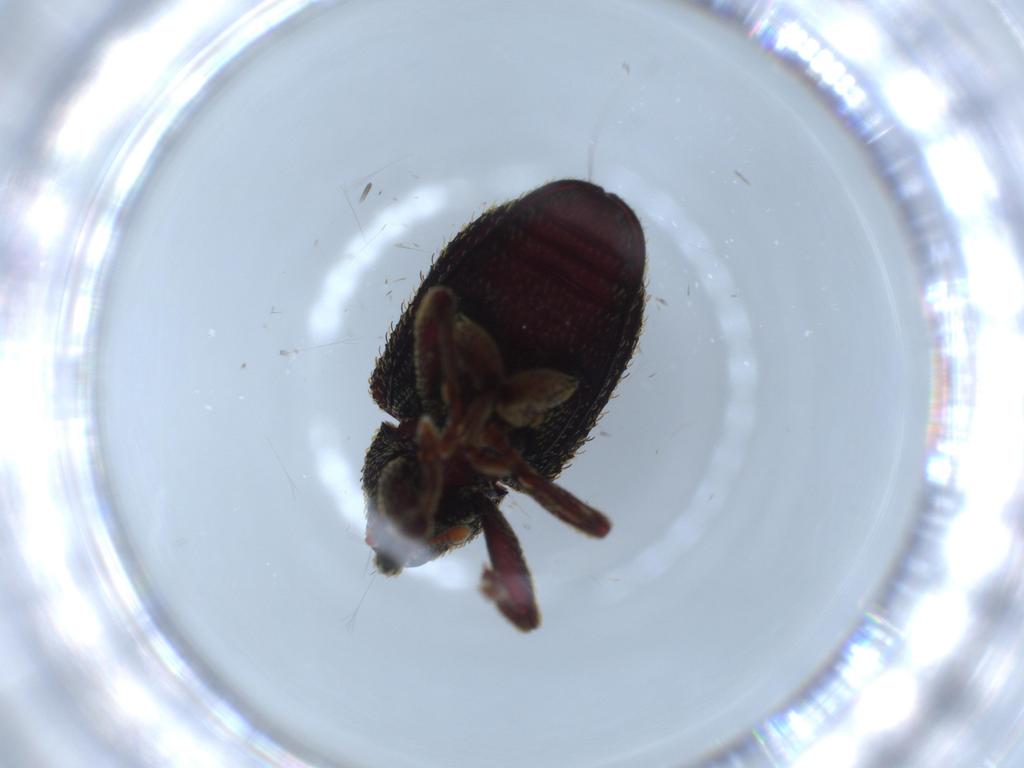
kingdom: Animalia
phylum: Arthropoda
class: Insecta
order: Coleoptera
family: Curculionidae
